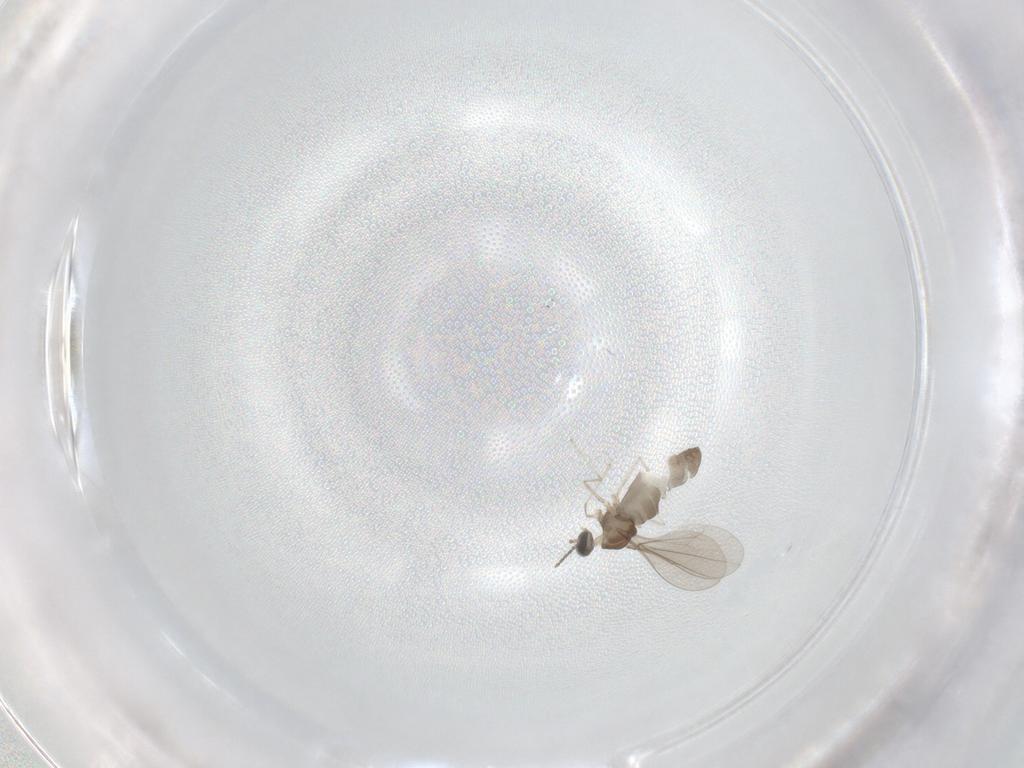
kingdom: Animalia
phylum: Arthropoda
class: Insecta
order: Diptera
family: Cecidomyiidae
